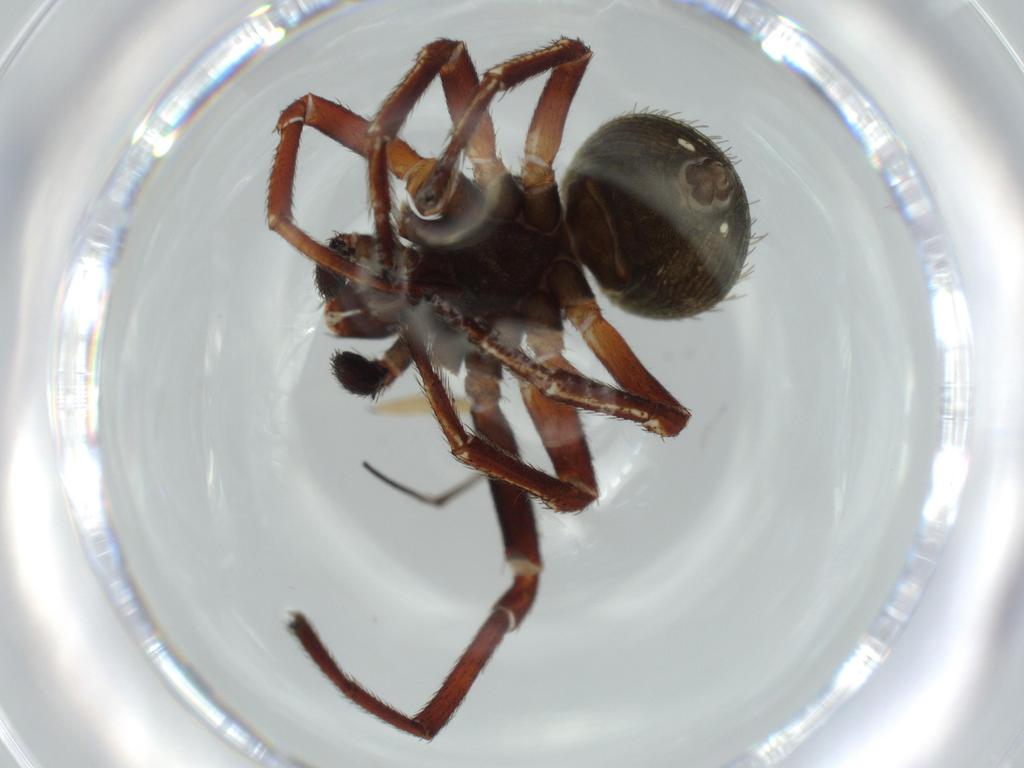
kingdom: Animalia
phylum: Arthropoda
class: Arachnida
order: Araneae
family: Thomisidae
